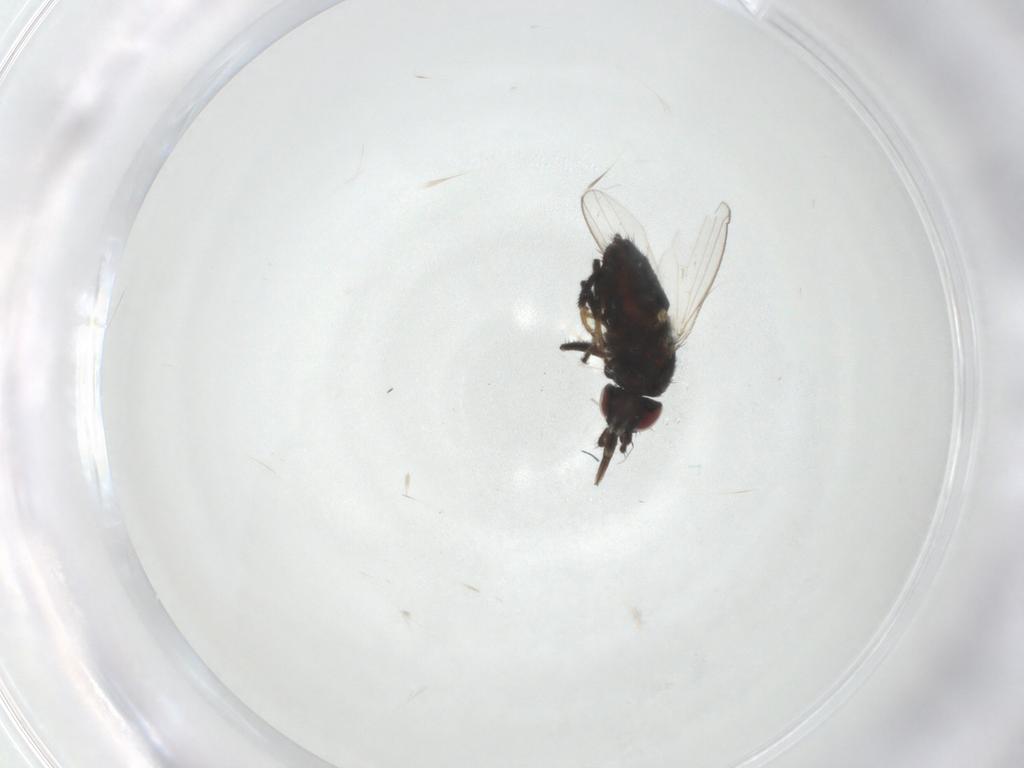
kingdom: Animalia
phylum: Arthropoda
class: Insecta
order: Diptera
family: Milichiidae
